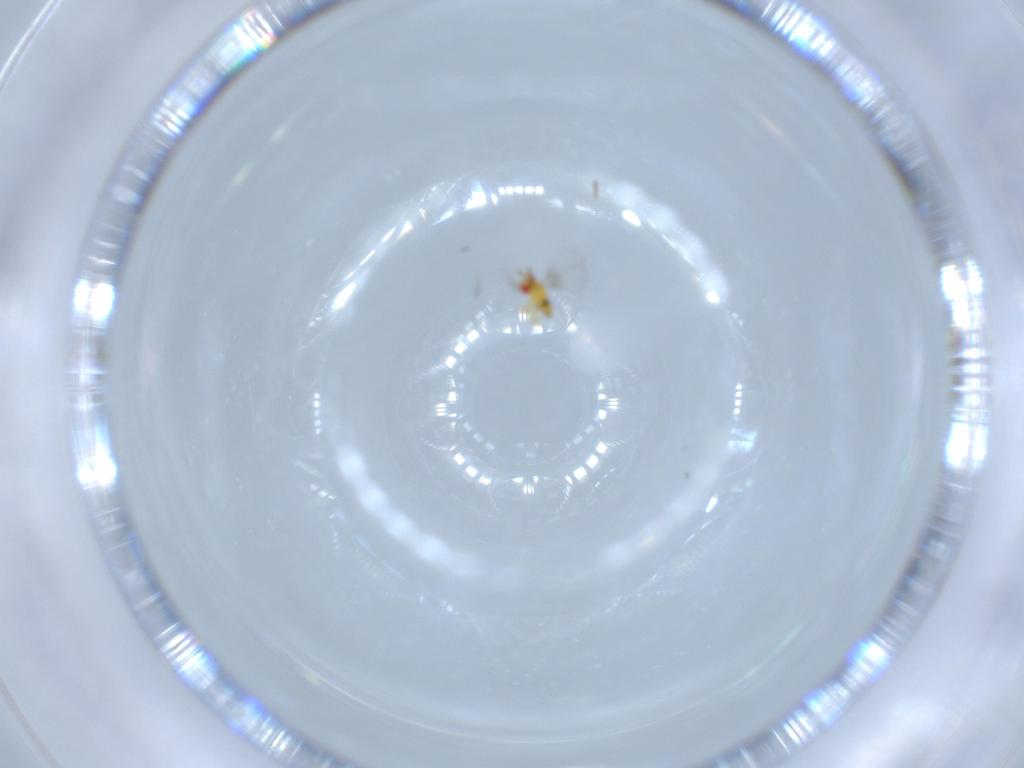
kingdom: Animalia
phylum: Arthropoda
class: Insecta
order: Hymenoptera
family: Trichogrammatidae
